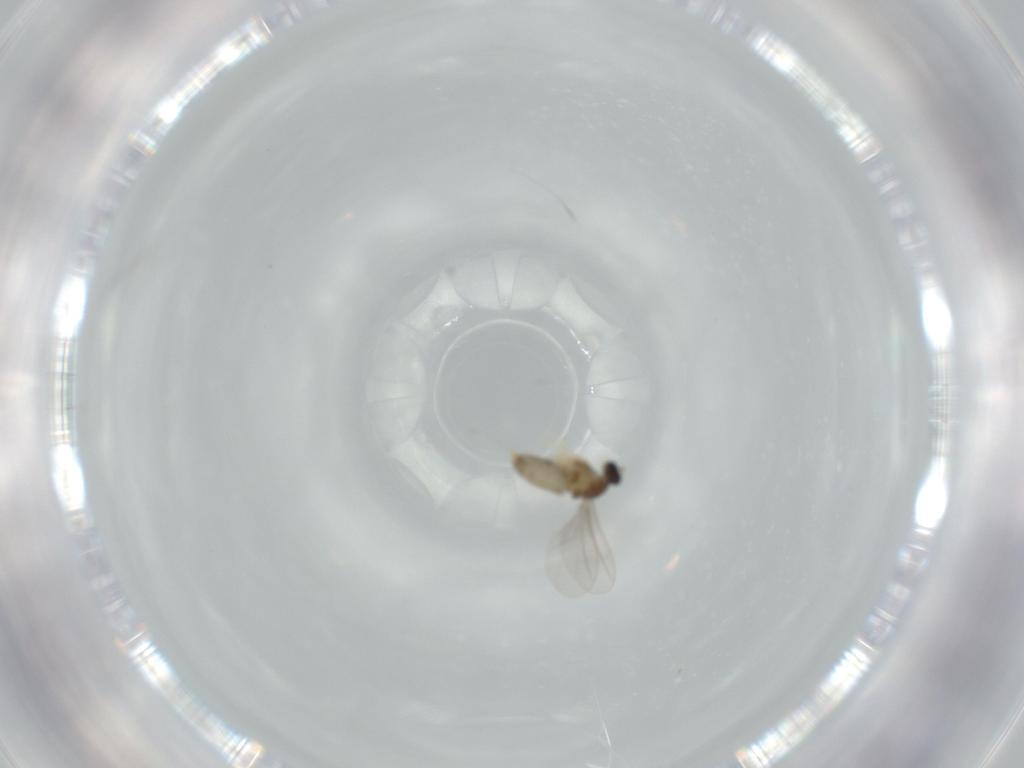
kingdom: Animalia
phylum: Arthropoda
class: Insecta
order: Diptera
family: Cecidomyiidae
